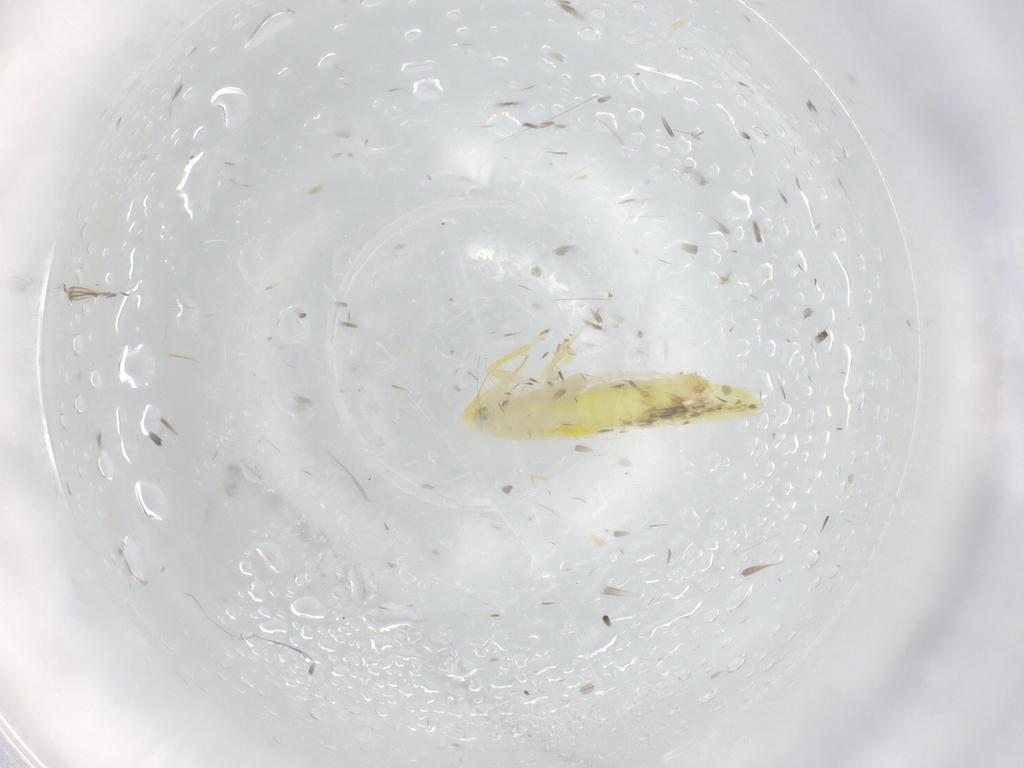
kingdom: Animalia
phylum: Arthropoda
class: Insecta
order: Hemiptera
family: Cicadellidae
